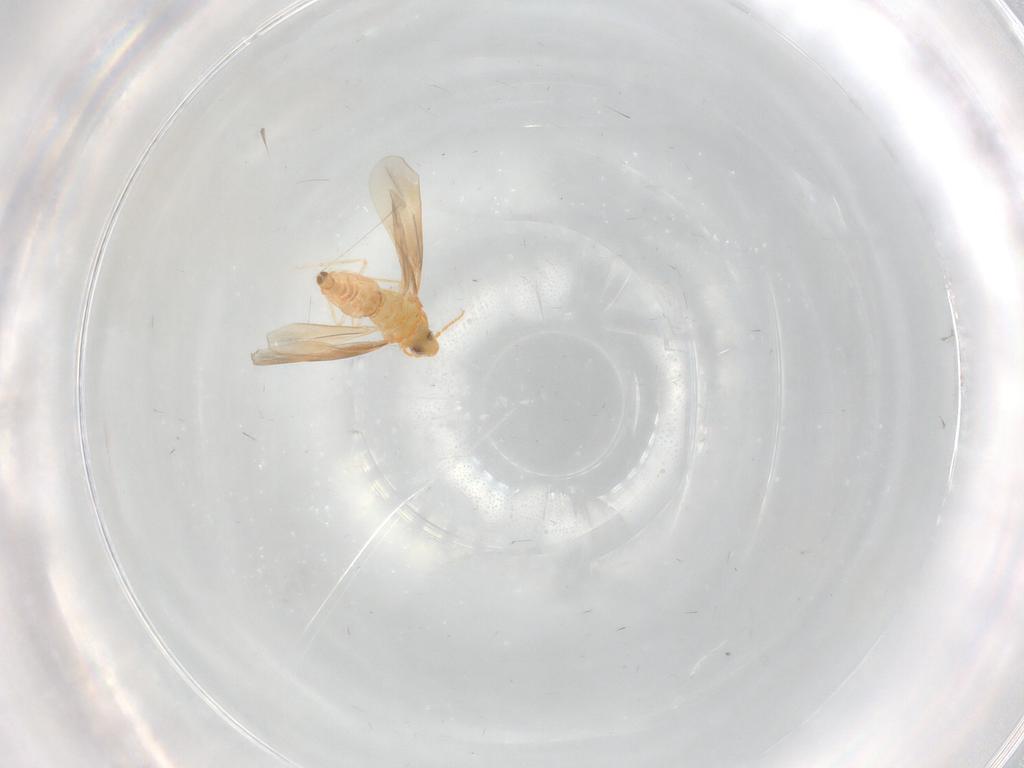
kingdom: Animalia
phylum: Arthropoda
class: Insecta
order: Hemiptera
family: Aleyrodidae
